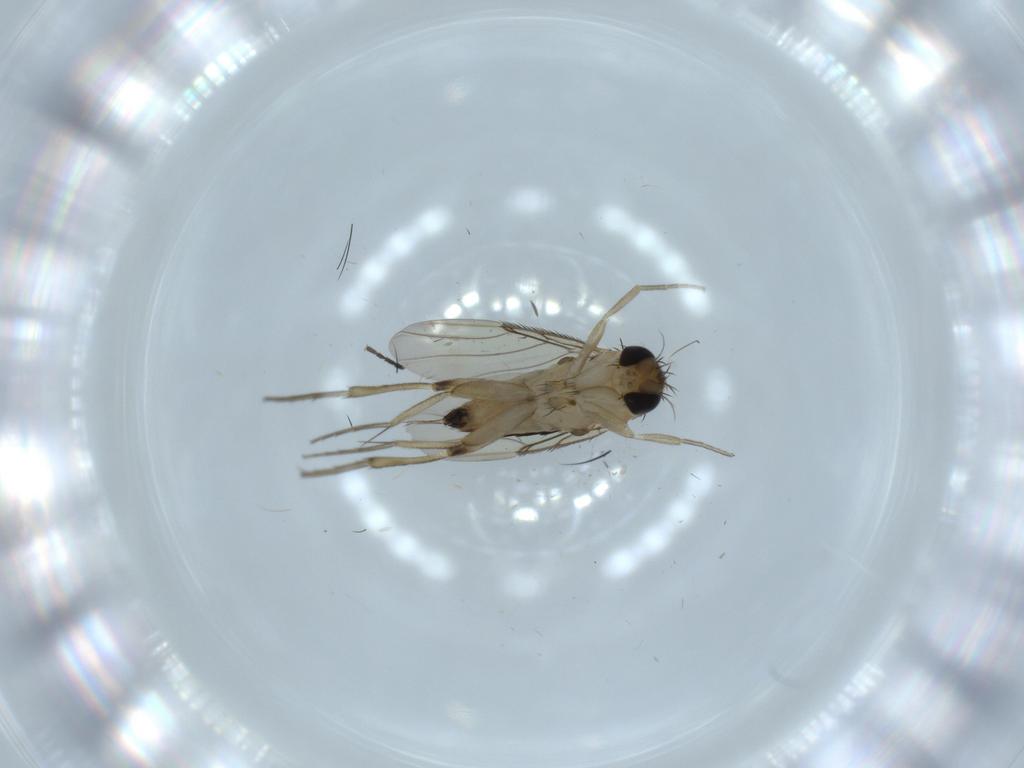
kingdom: Animalia
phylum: Arthropoda
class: Insecta
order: Diptera
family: Phoridae
